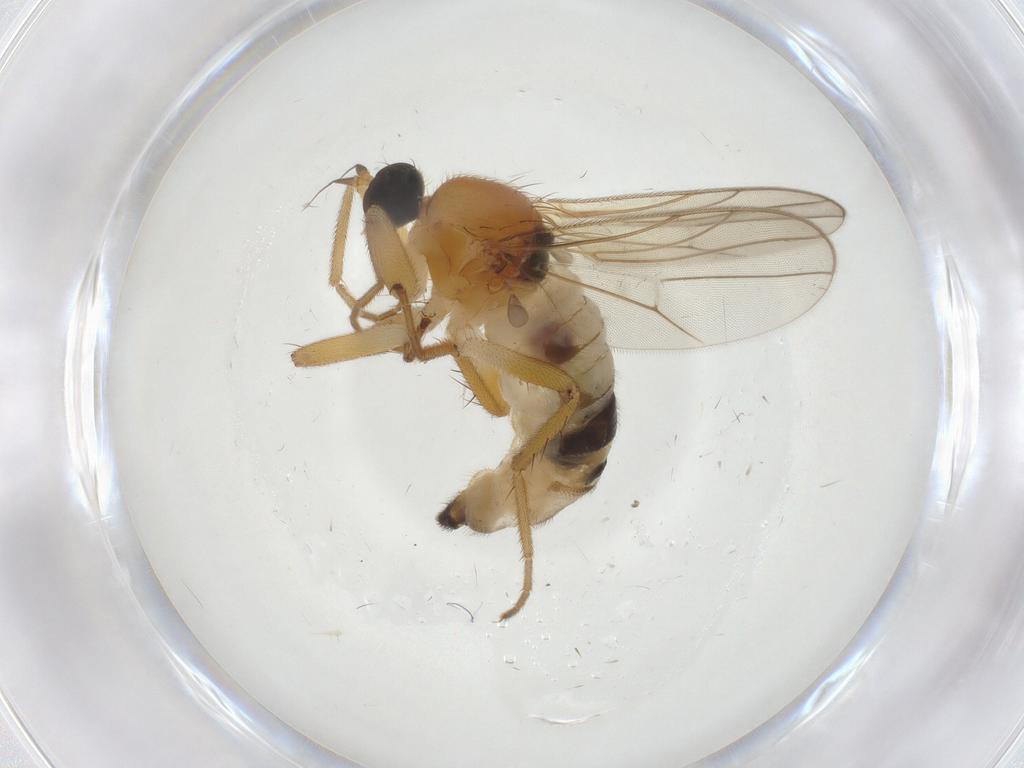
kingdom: Animalia
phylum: Arthropoda
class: Insecta
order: Diptera
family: Hybotidae
